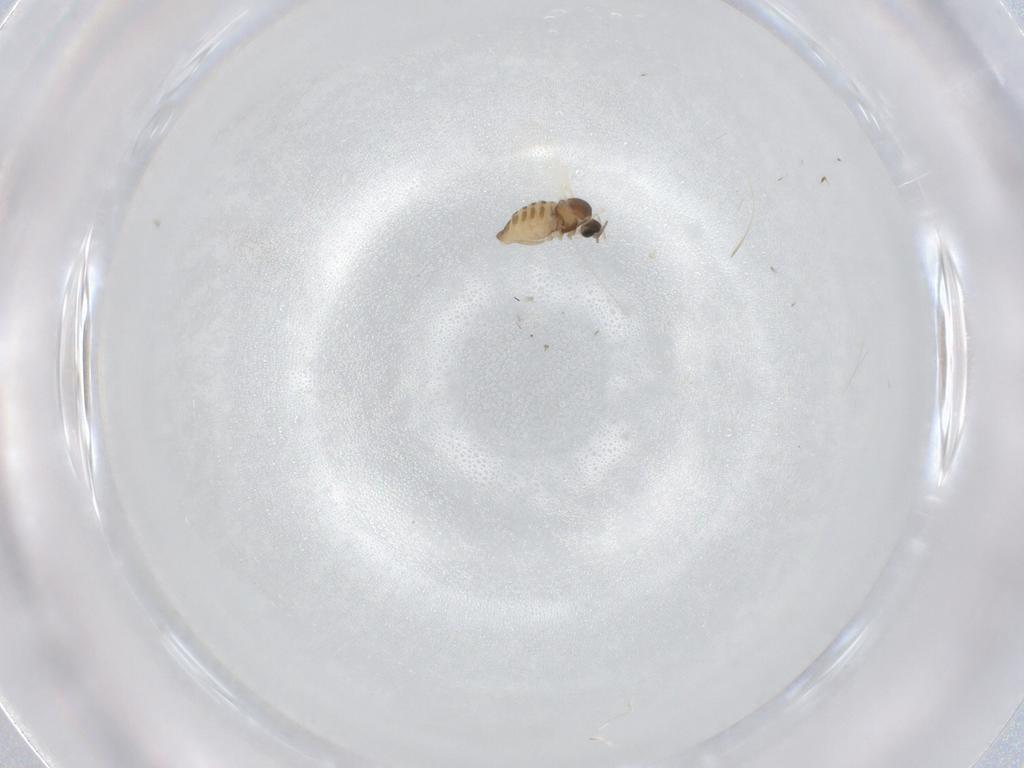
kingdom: Animalia
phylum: Arthropoda
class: Insecta
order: Diptera
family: Cecidomyiidae
